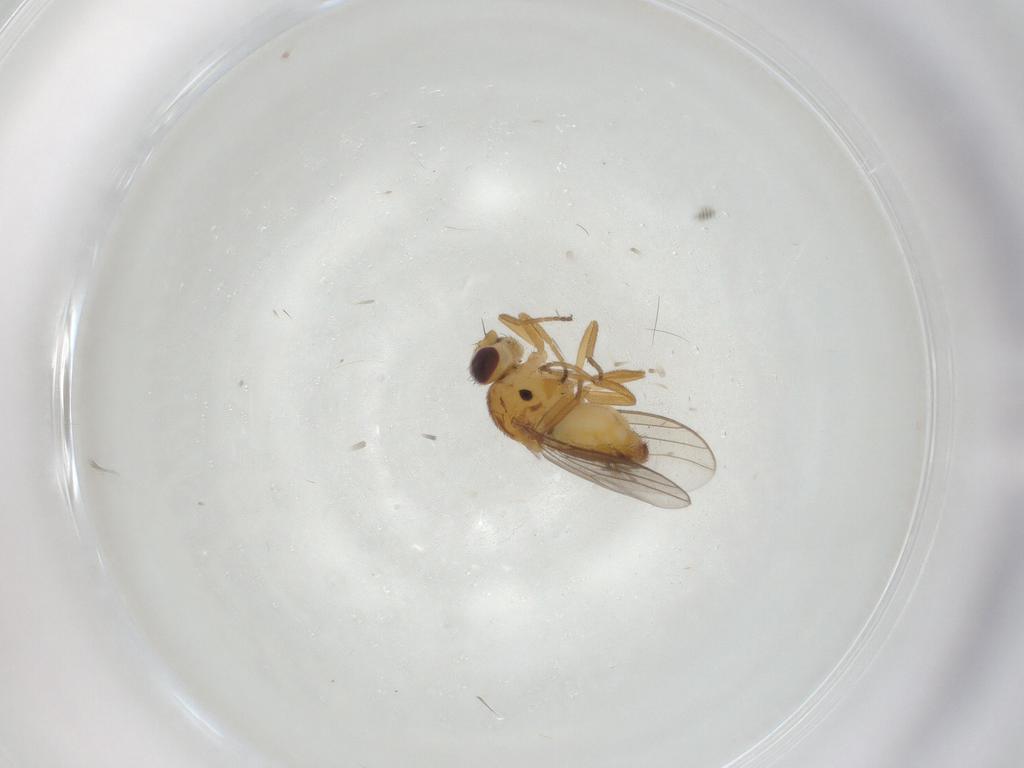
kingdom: Animalia
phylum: Arthropoda
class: Insecta
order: Diptera
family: Chloropidae
